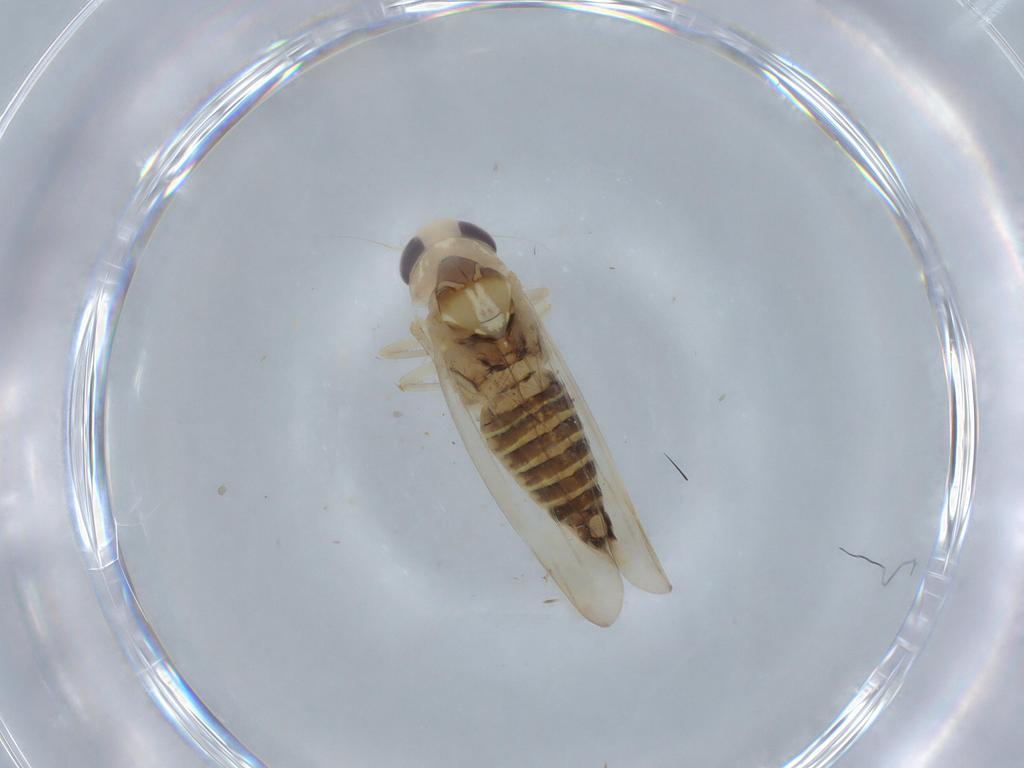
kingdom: Animalia
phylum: Arthropoda
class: Insecta
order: Hemiptera
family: Cicadellidae
